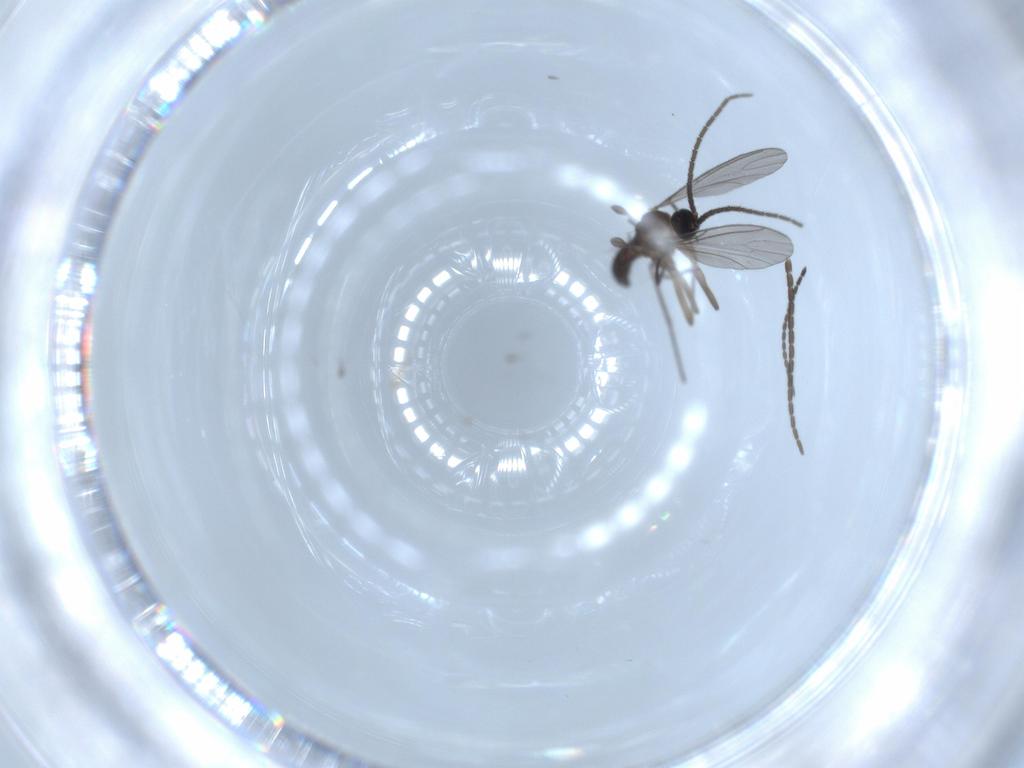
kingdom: Animalia
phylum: Arthropoda
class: Insecta
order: Diptera
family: Sciaridae
